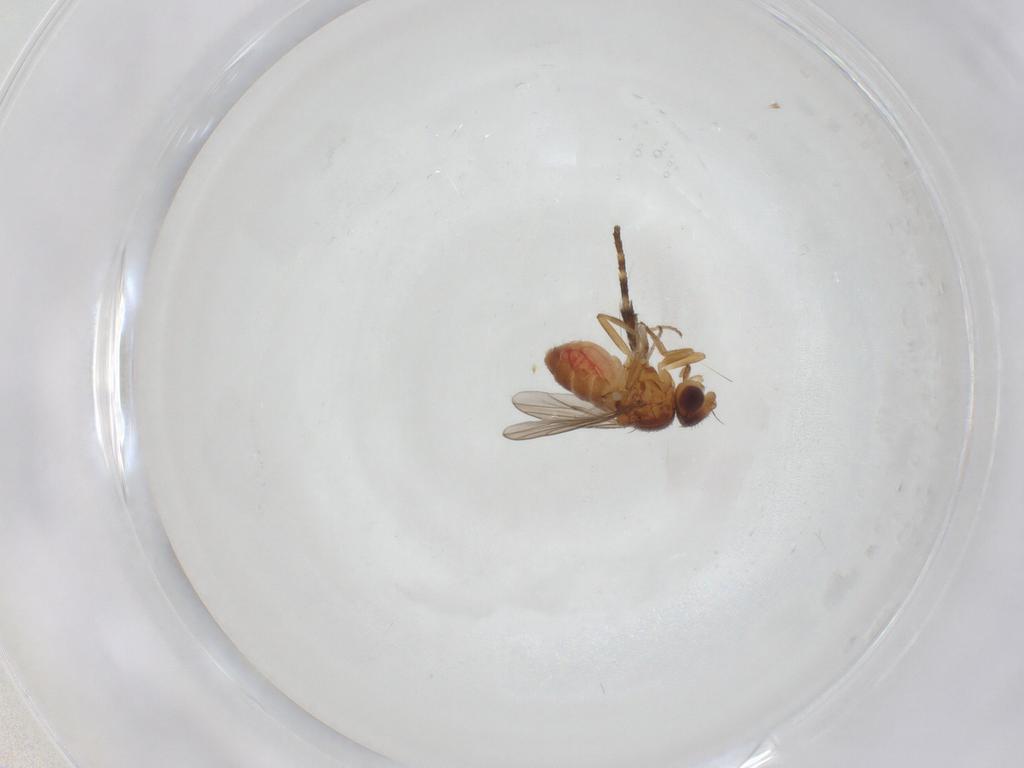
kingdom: Animalia
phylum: Arthropoda
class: Insecta
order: Diptera
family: Chloropidae
